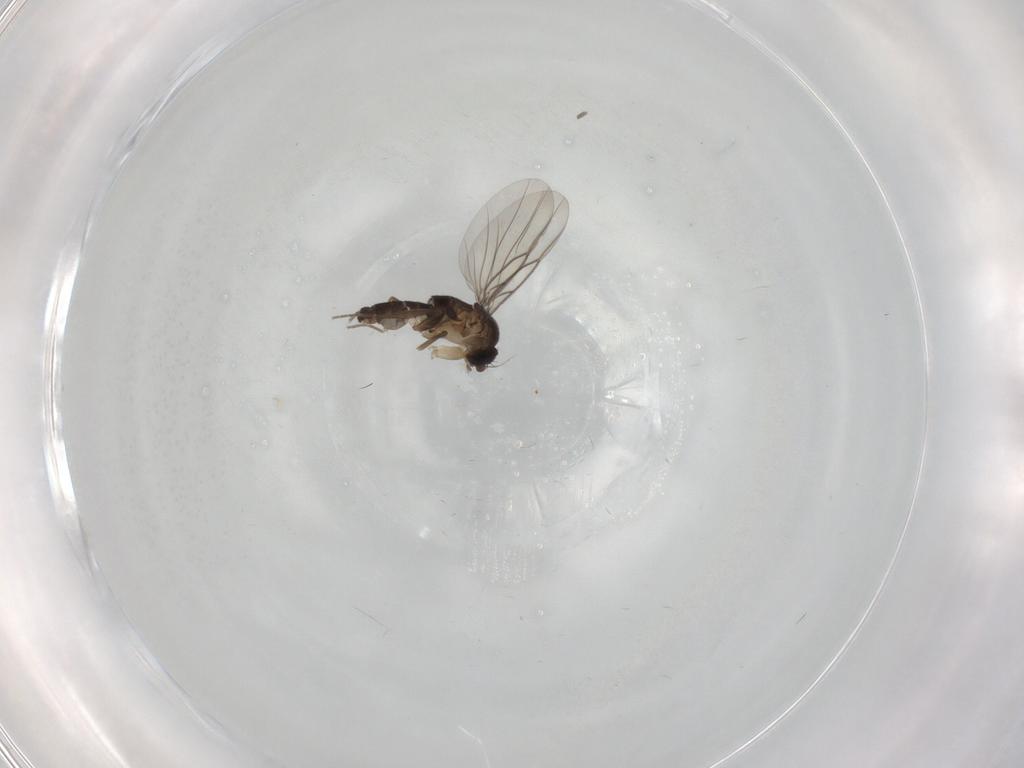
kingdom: Animalia
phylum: Arthropoda
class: Insecta
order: Diptera
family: Phoridae
